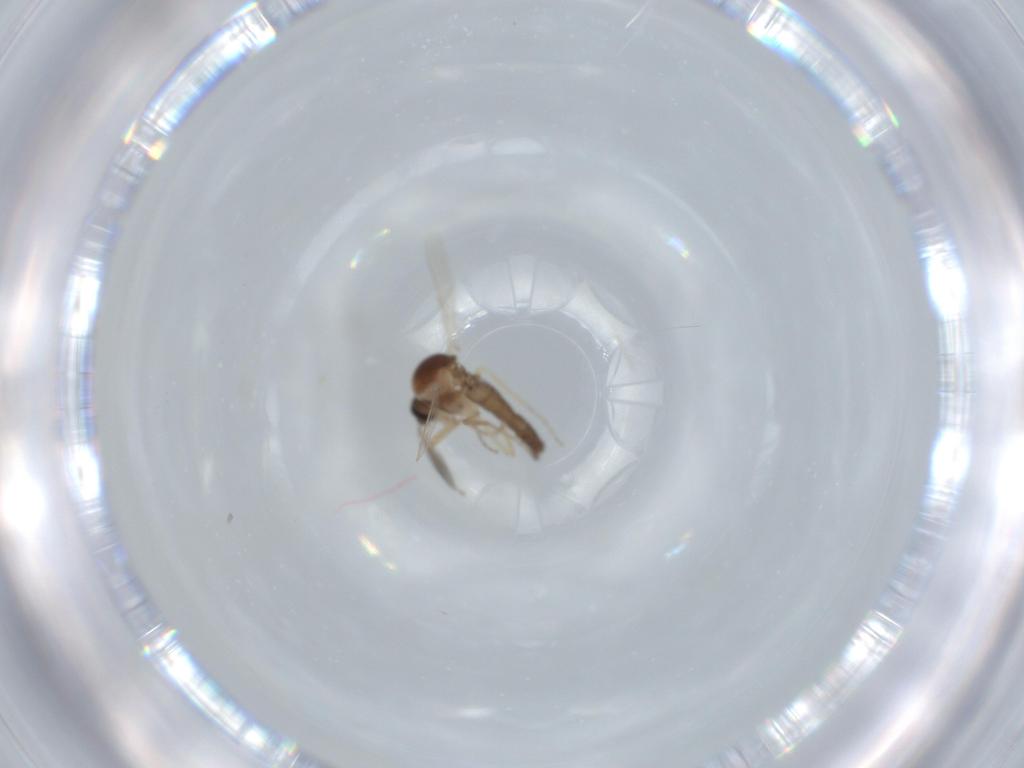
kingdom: Animalia
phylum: Arthropoda
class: Insecta
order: Diptera
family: Ceratopogonidae
